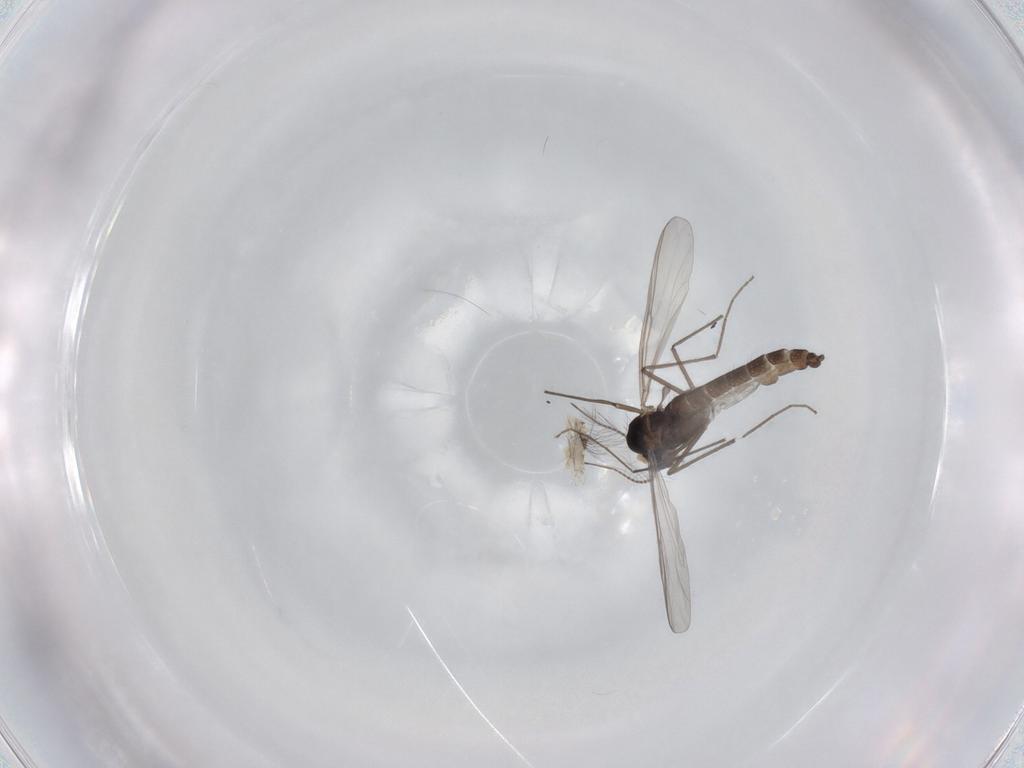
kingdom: Animalia
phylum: Arthropoda
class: Insecta
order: Diptera
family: Chironomidae
